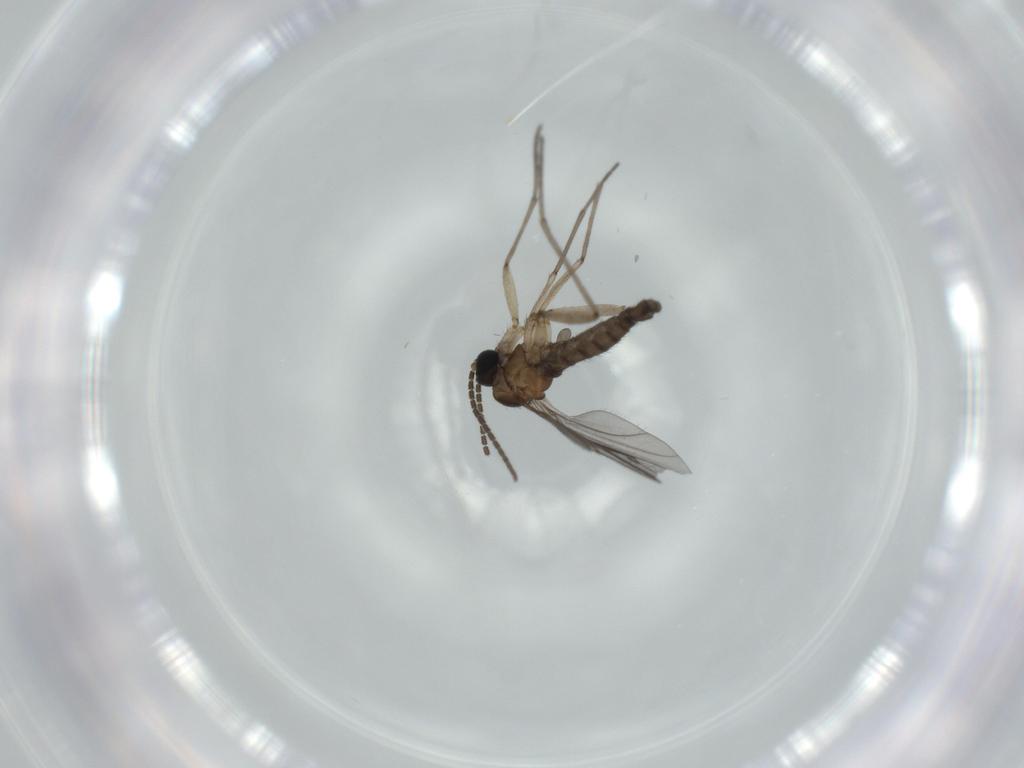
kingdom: Animalia
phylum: Arthropoda
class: Insecta
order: Diptera
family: Sciaridae
